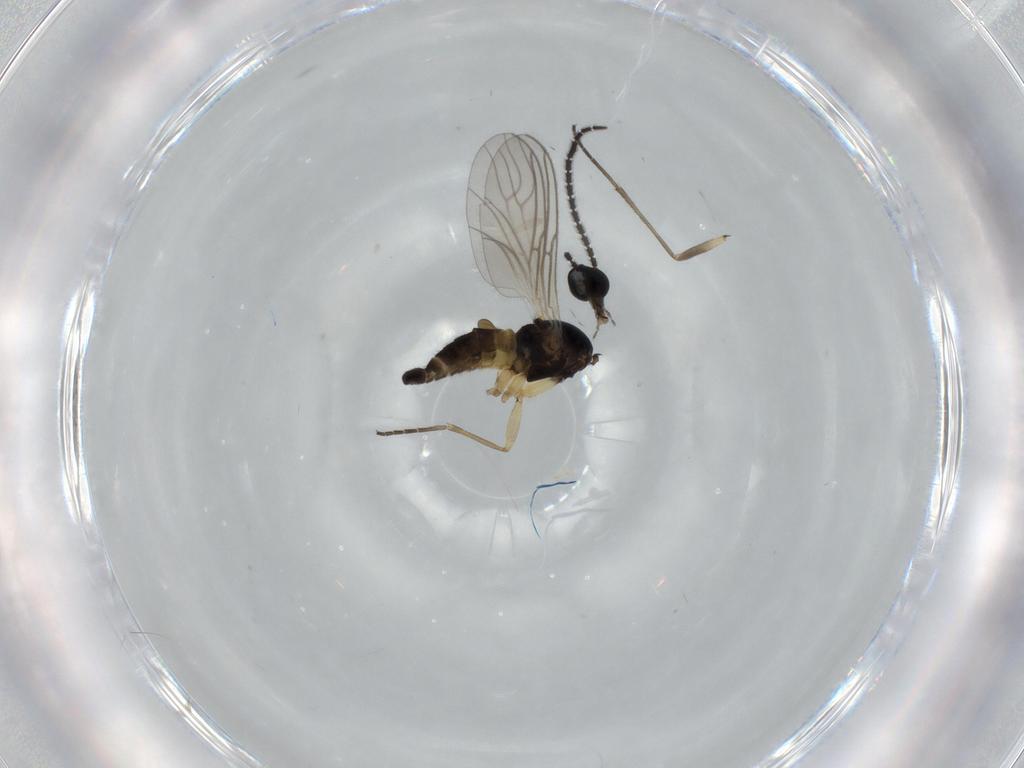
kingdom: Animalia
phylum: Arthropoda
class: Insecta
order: Diptera
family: Sciaridae
